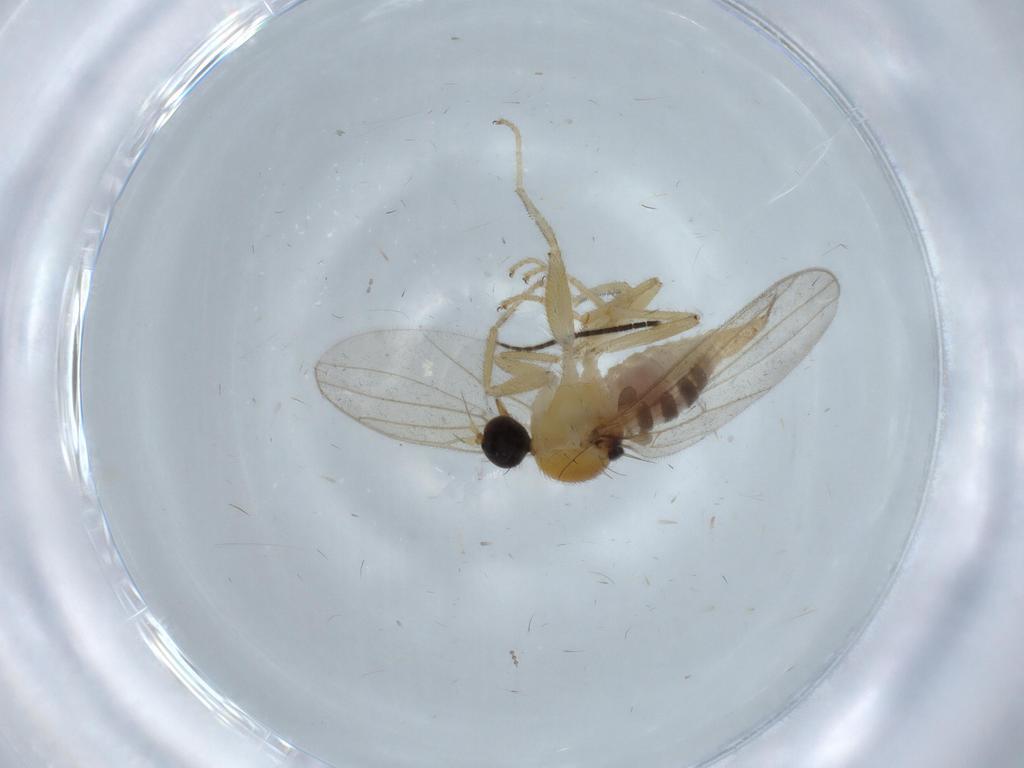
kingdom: Animalia
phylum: Arthropoda
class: Insecta
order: Diptera
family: Hybotidae
